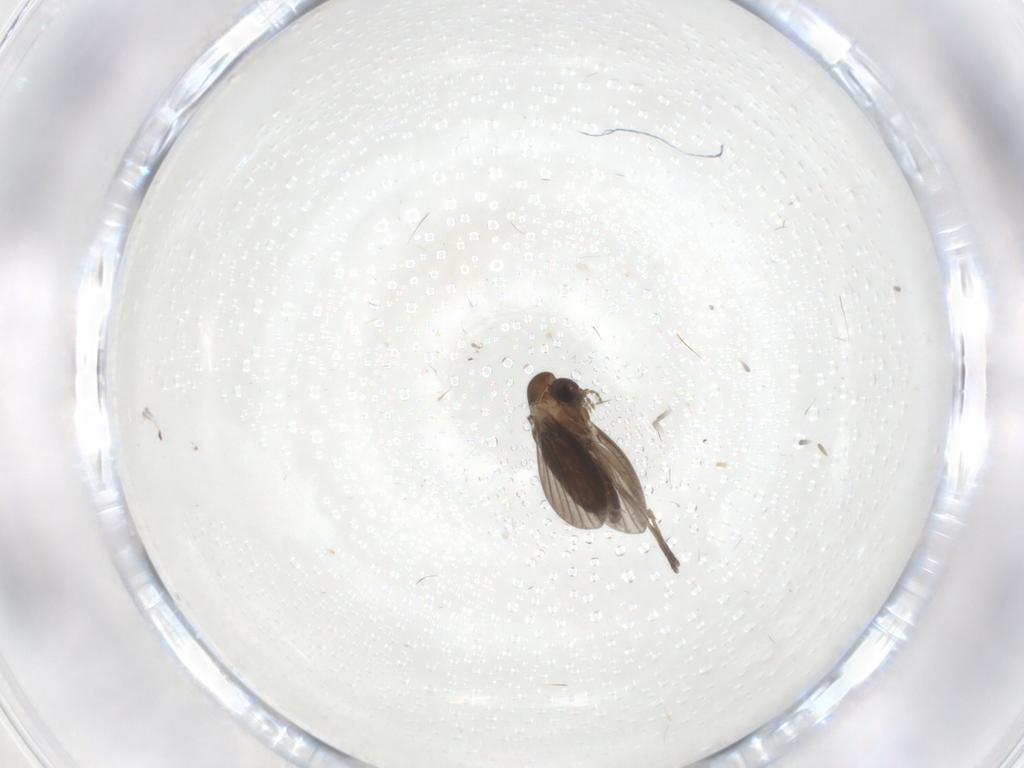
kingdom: Animalia
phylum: Arthropoda
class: Insecta
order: Diptera
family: Cecidomyiidae
